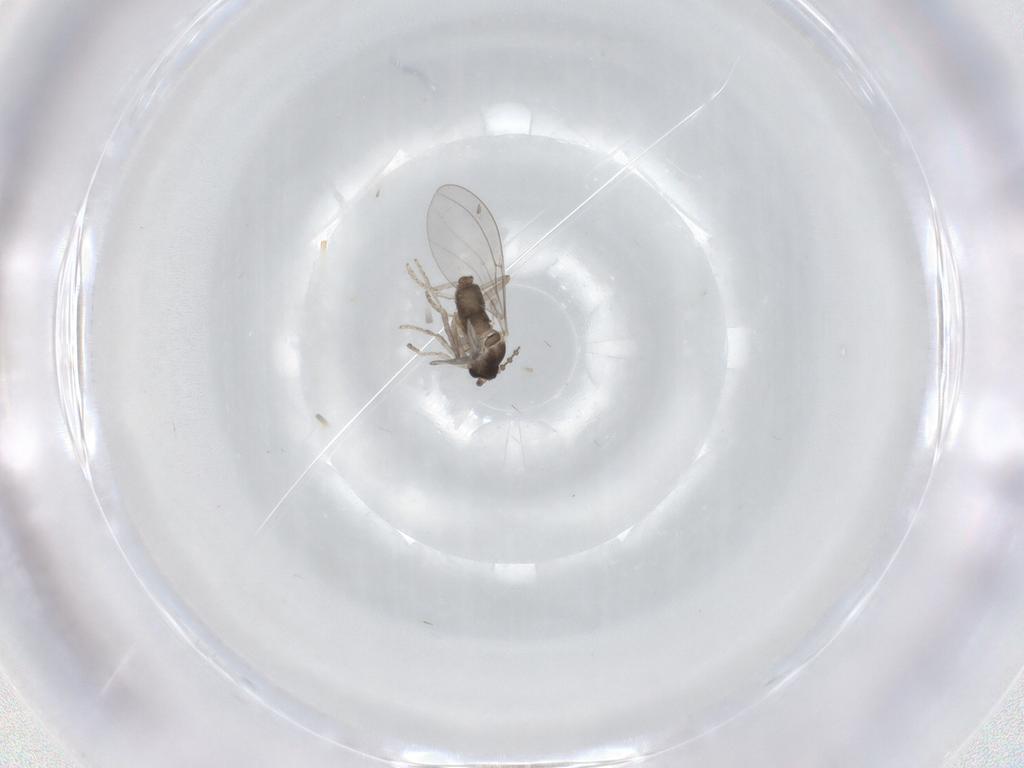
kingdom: Animalia
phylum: Arthropoda
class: Insecta
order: Diptera
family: Cecidomyiidae
